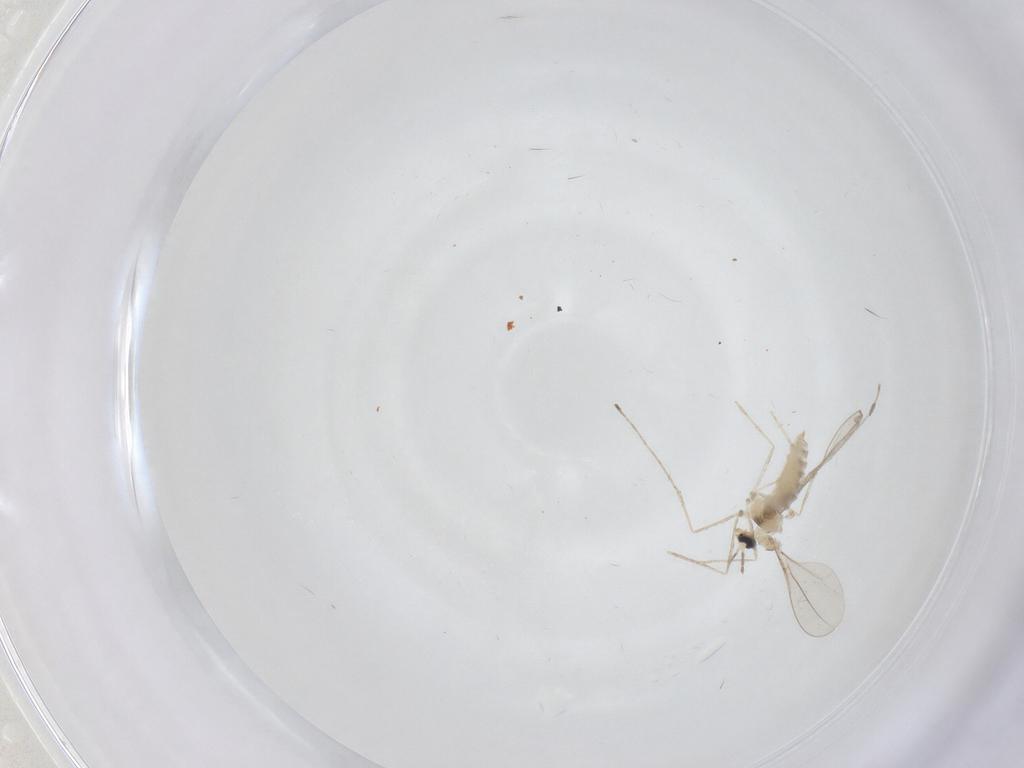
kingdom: Animalia
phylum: Arthropoda
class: Insecta
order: Diptera
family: Cecidomyiidae
